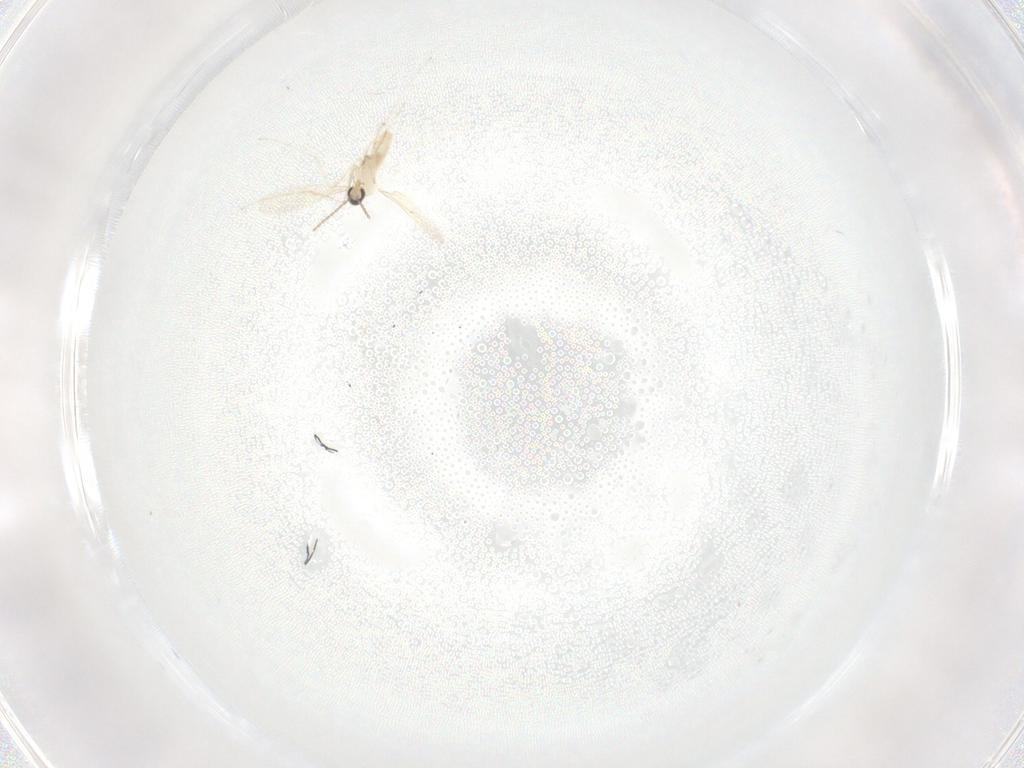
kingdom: Animalia
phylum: Arthropoda
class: Insecta
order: Diptera
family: Cecidomyiidae
